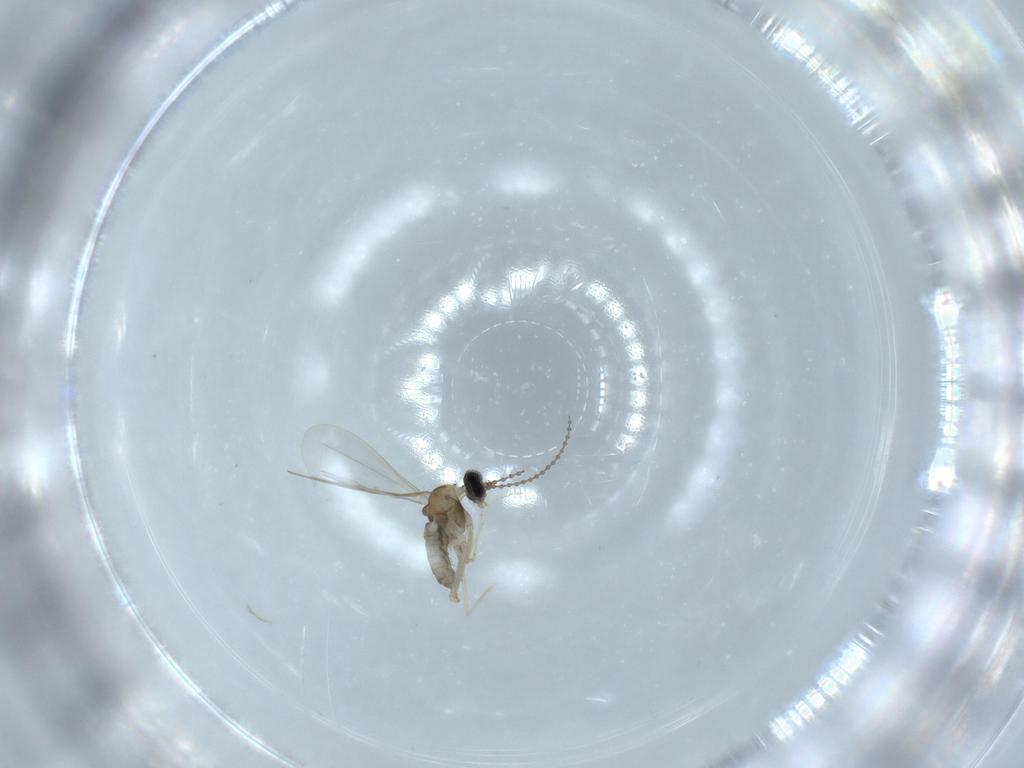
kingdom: Animalia
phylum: Arthropoda
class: Insecta
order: Diptera
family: Cecidomyiidae
